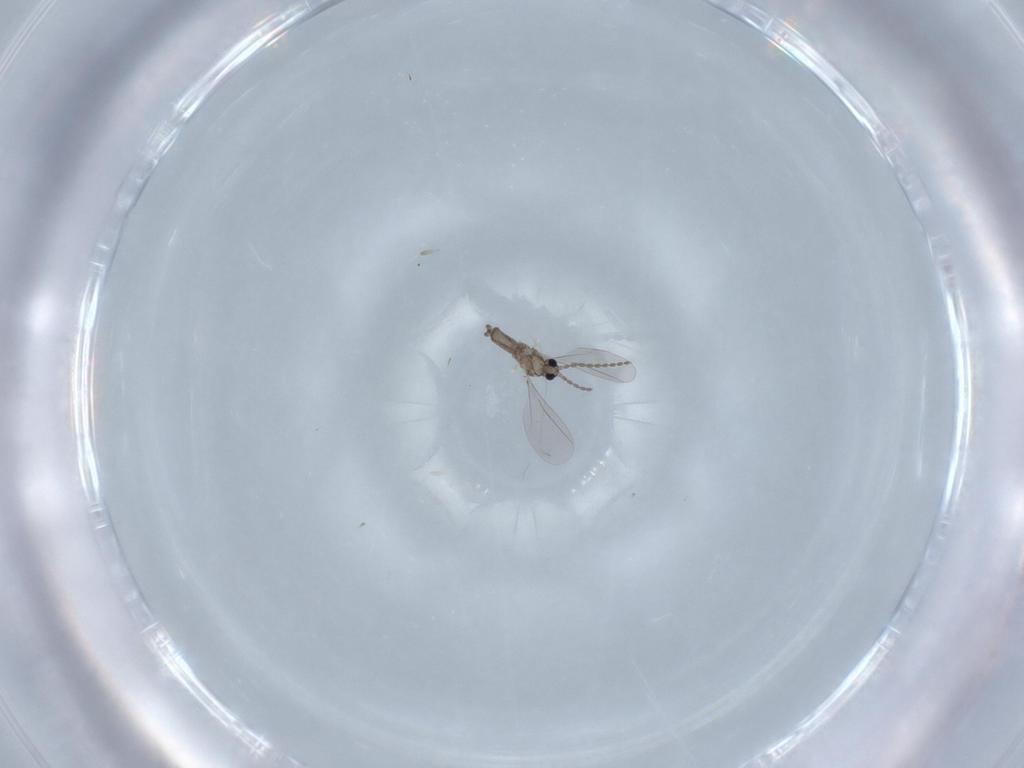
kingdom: Animalia
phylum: Arthropoda
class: Insecta
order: Diptera
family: Cecidomyiidae
